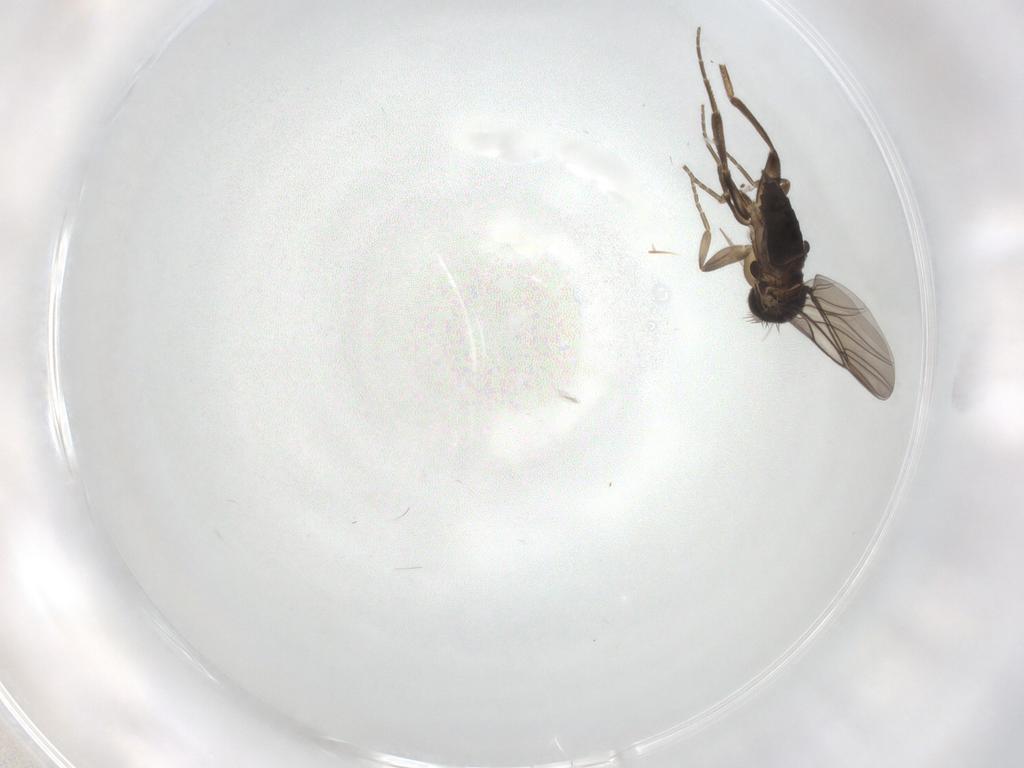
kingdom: Animalia
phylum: Arthropoda
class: Insecta
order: Diptera
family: Phoridae
